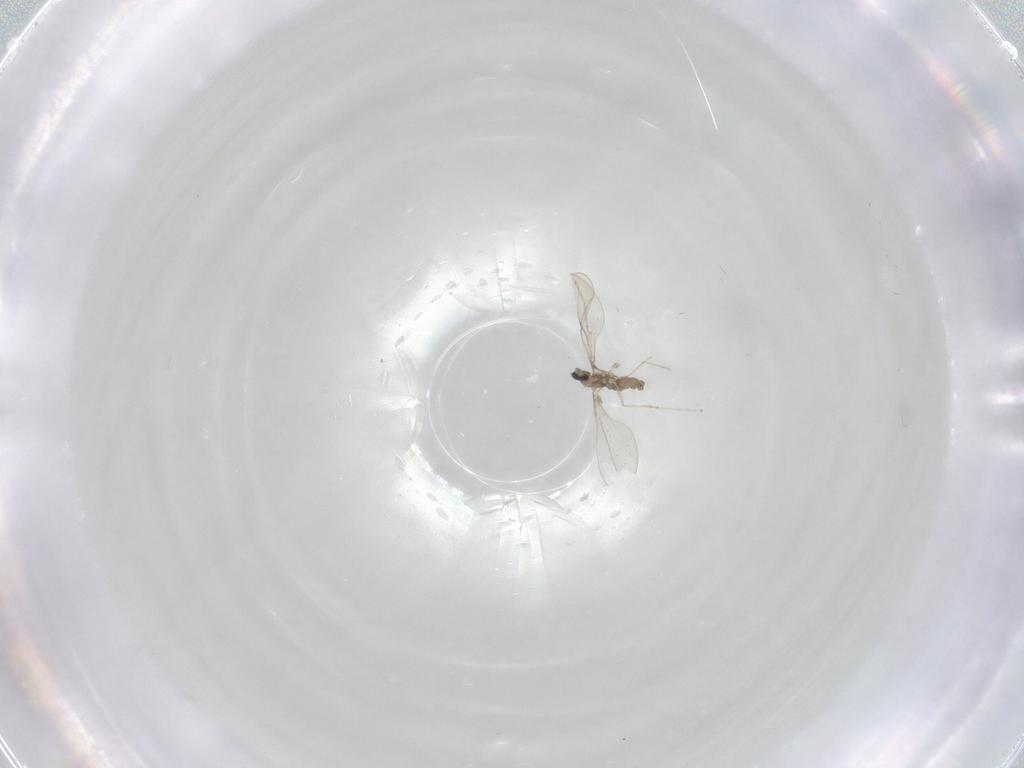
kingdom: Animalia
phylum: Arthropoda
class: Insecta
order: Diptera
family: Cecidomyiidae
